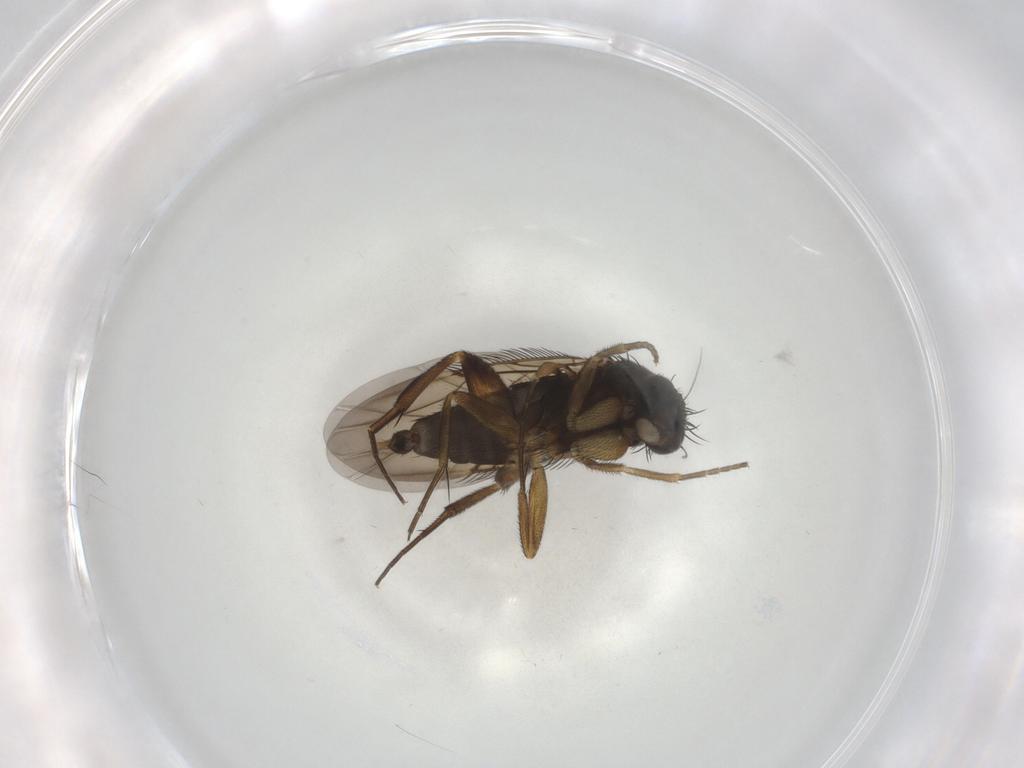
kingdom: Animalia
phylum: Arthropoda
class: Insecta
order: Diptera
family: Phoridae
